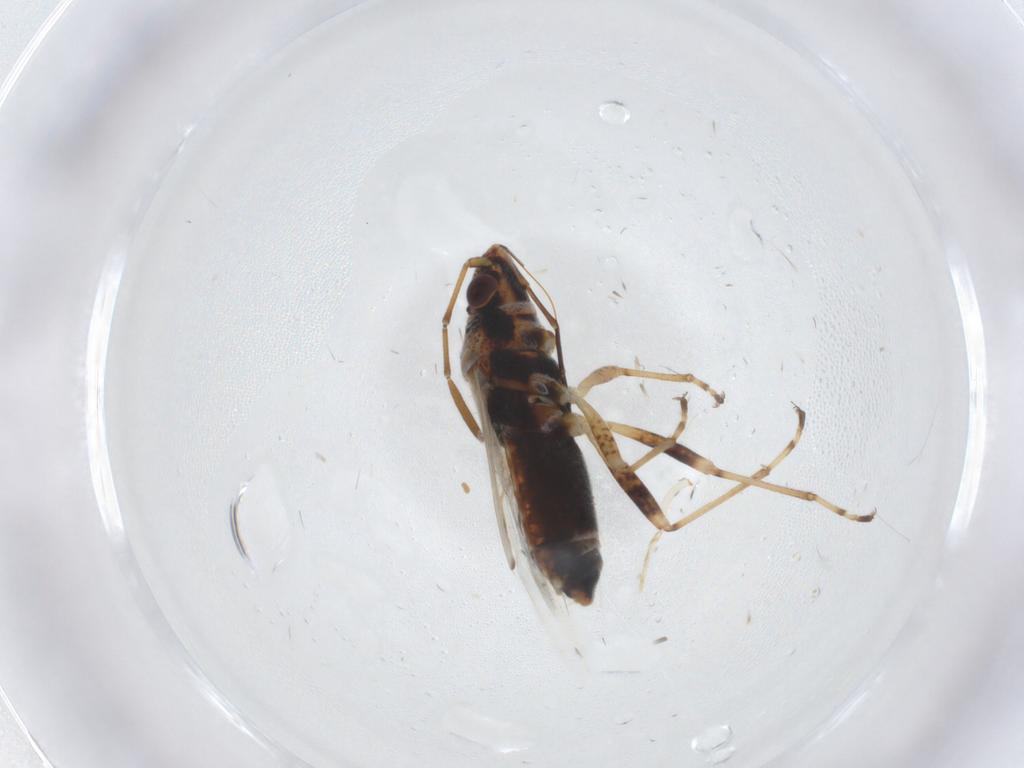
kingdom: Animalia
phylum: Arthropoda
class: Insecta
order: Hemiptera
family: Lygaeidae
